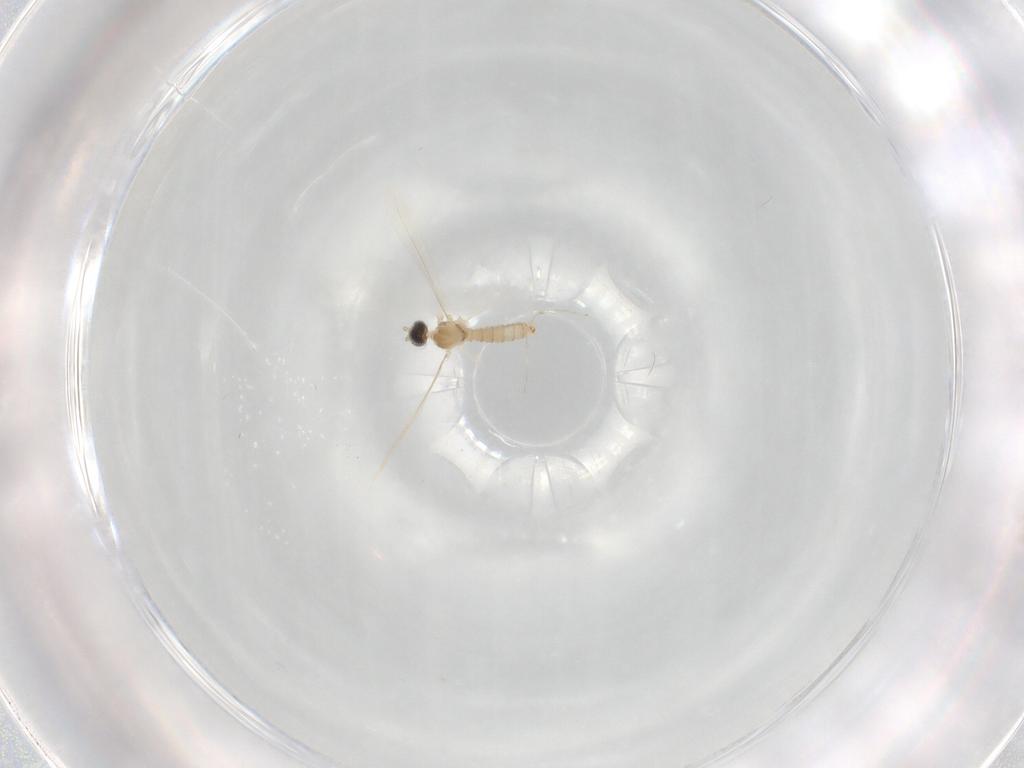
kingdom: Animalia
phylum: Arthropoda
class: Insecta
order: Diptera
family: Cecidomyiidae
